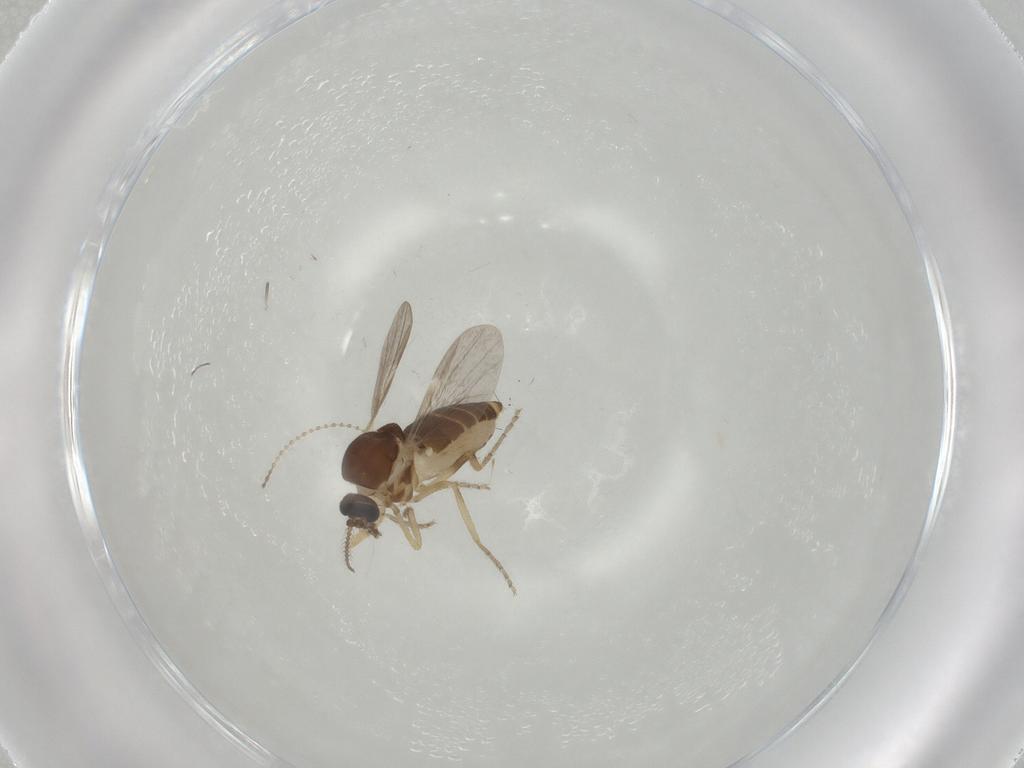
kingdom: Animalia
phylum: Arthropoda
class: Insecta
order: Diptera
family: Ceratopogonidae
